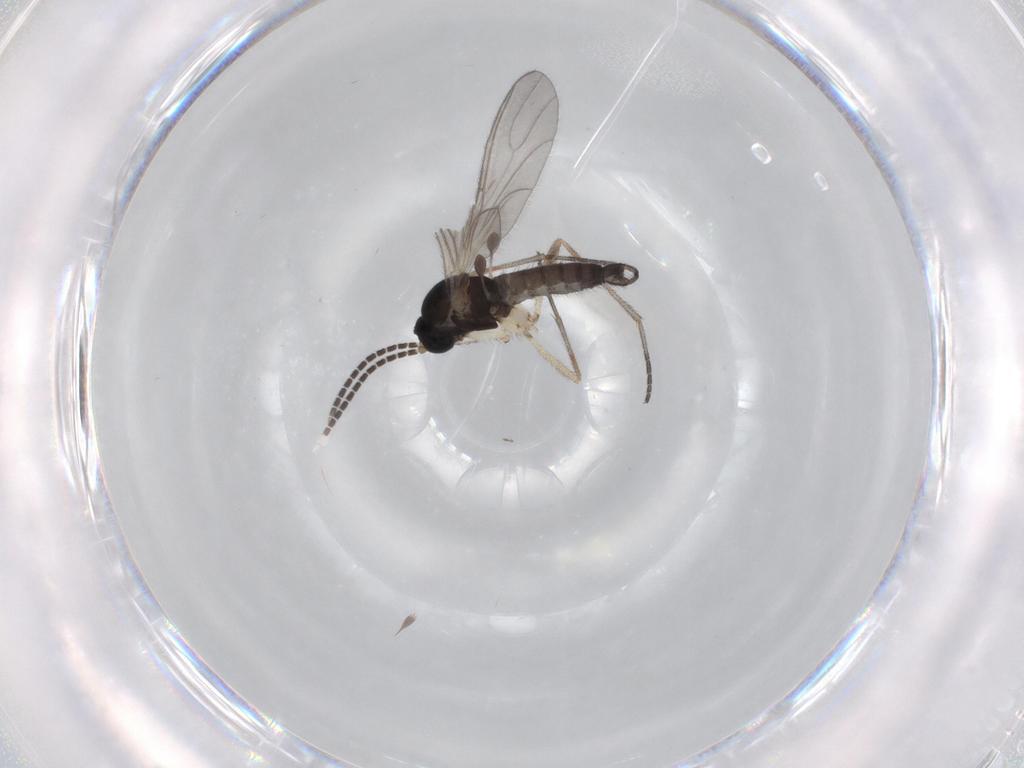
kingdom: Animalia
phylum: Arthropoda
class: Insecta
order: Diptera
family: Sciaridae
